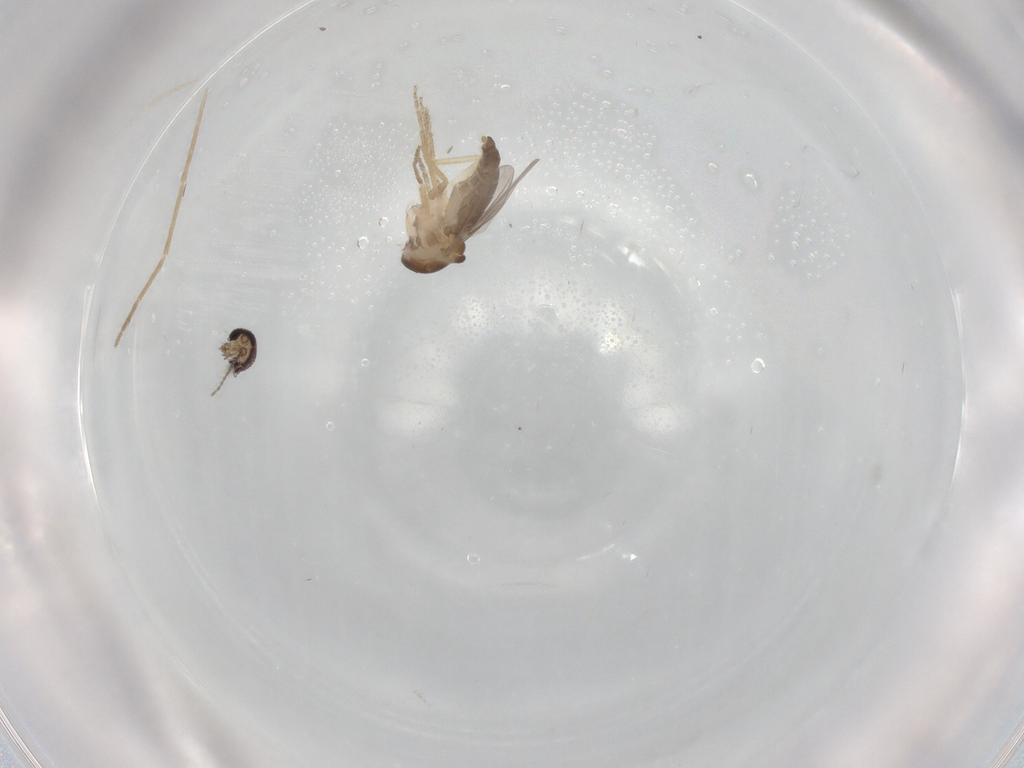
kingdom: Animalia
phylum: Arthropoda
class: Insecta
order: Diptera
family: Ceratopogonidae
